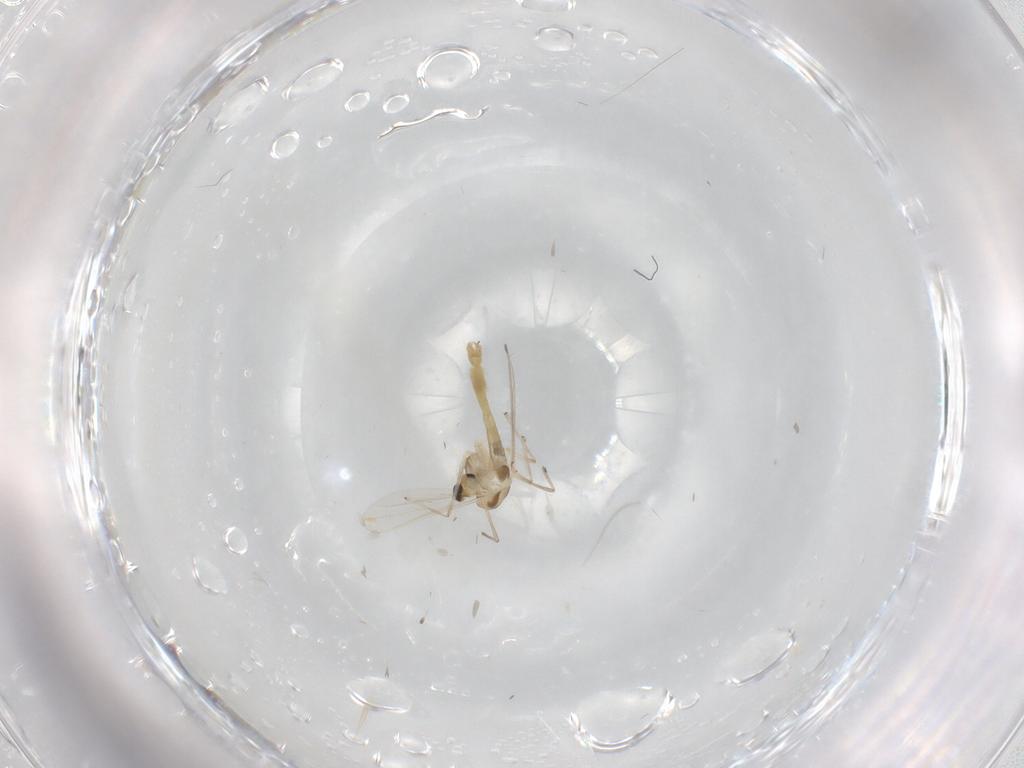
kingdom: Animalia
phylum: Arthropoda
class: Insecta
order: Diptera
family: Chironomidae
